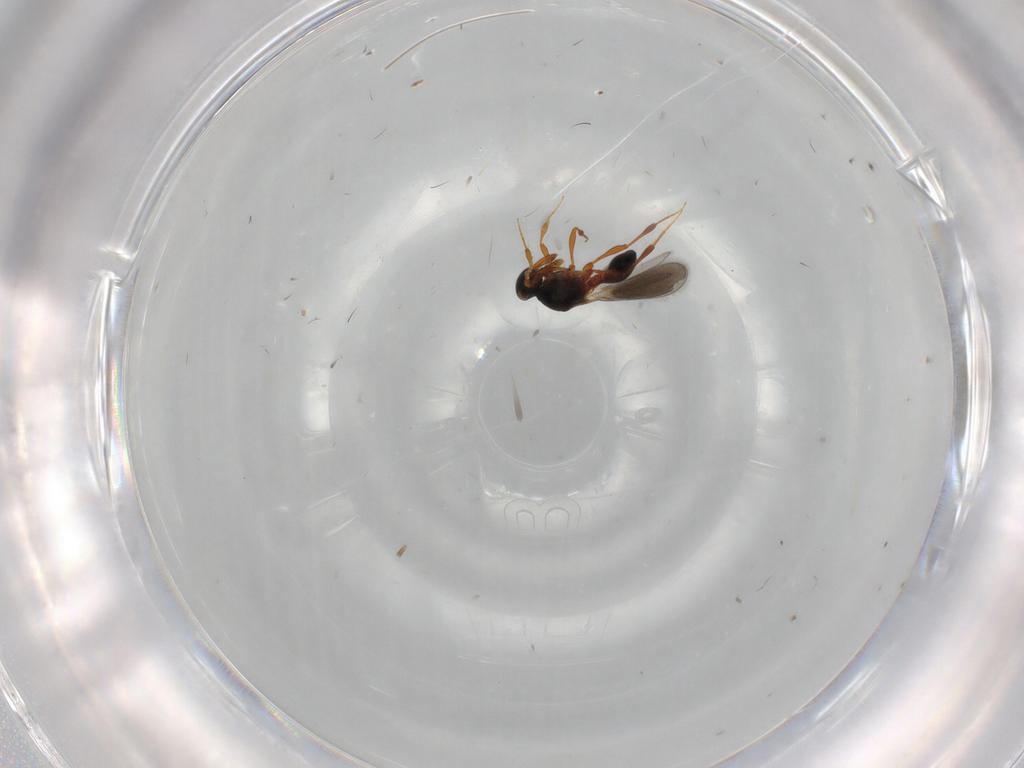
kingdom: Animalia
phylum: Arthropoda
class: Insecta
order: Hymenoptera
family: Platygastridae
